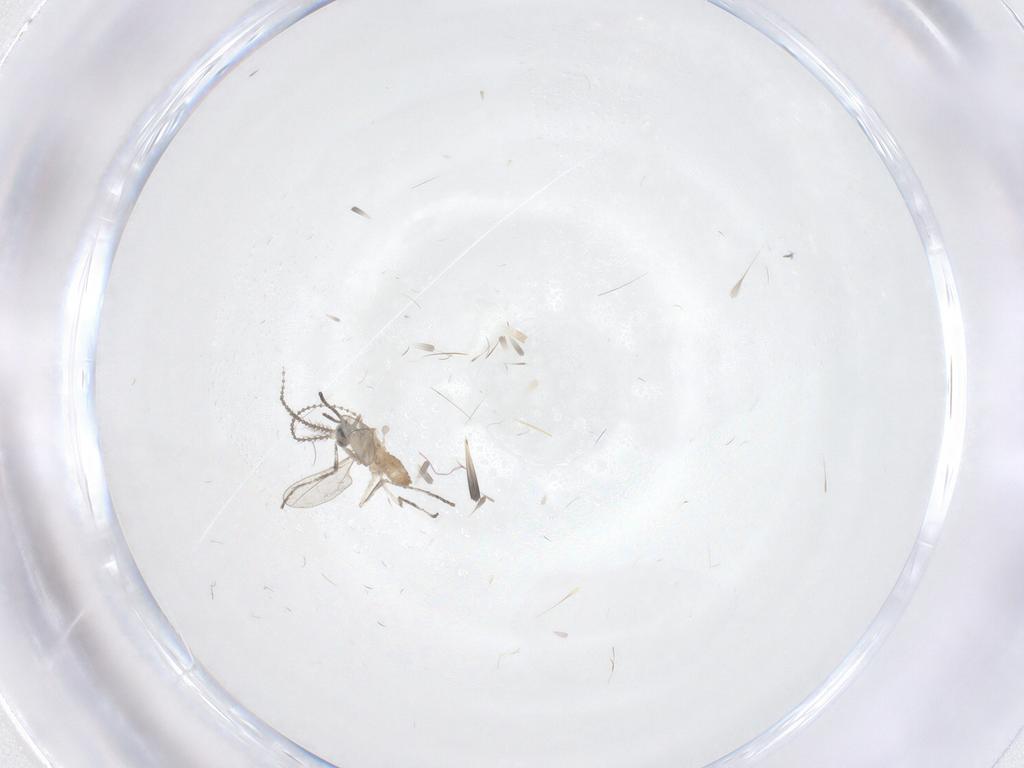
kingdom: Animalia
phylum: Arthropoda
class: Insecta
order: Diptera
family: Cecidomyiidae
